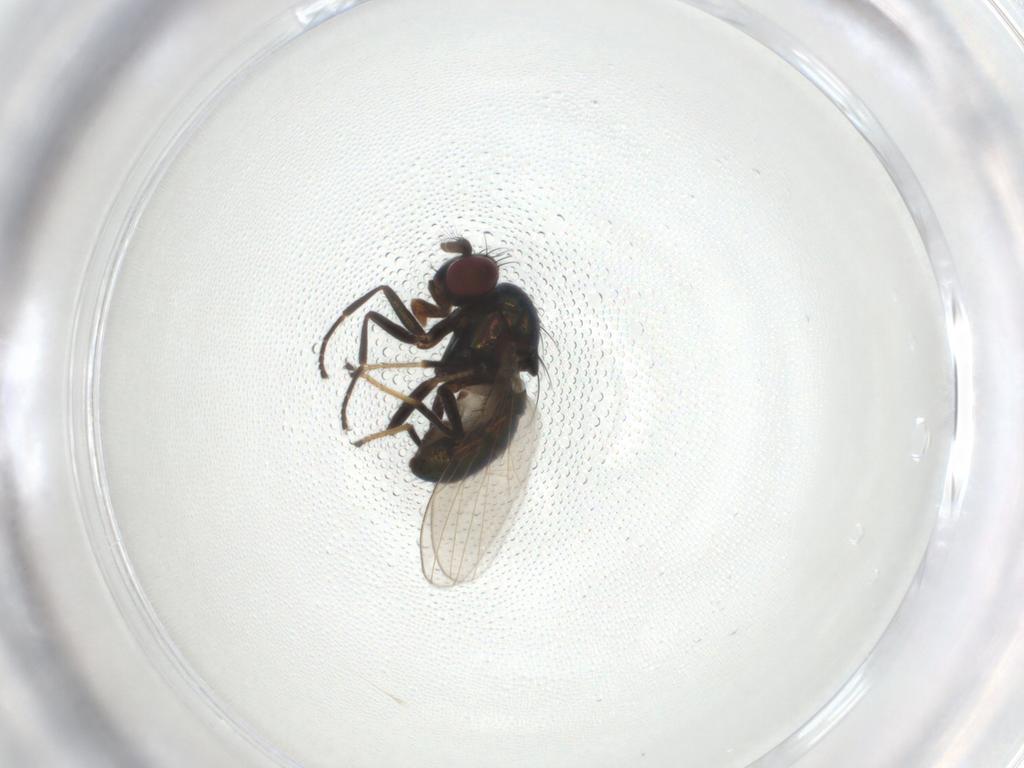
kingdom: Animalia
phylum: Arthropoda
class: Insecta
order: Diptera
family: Ephydridae
